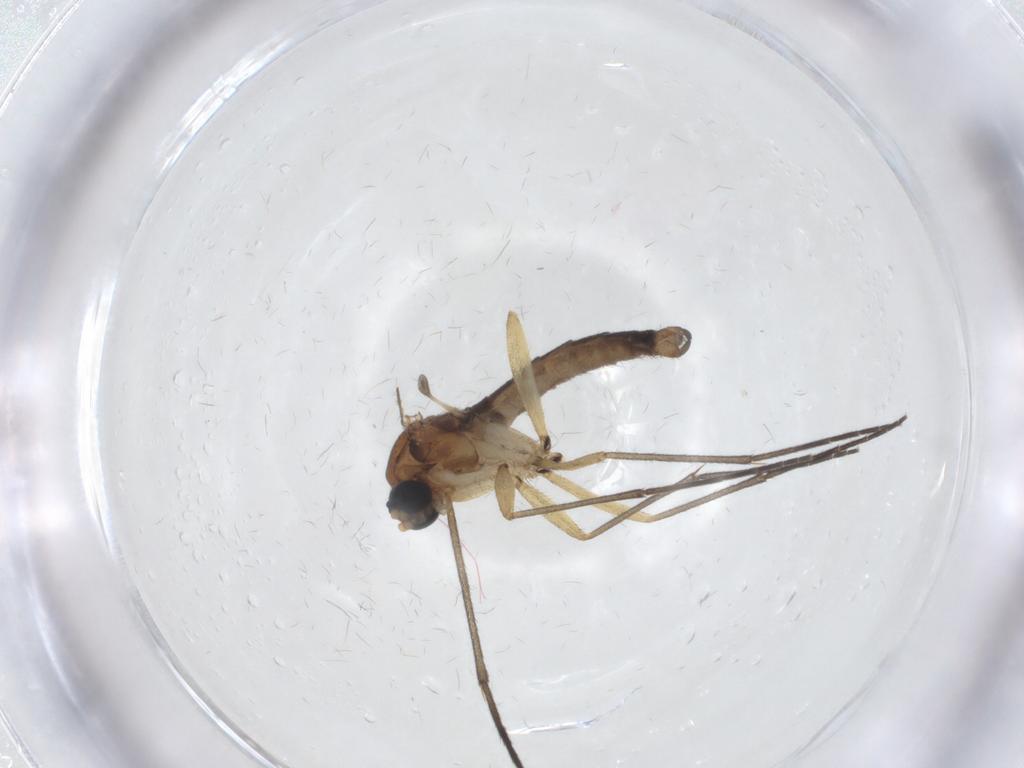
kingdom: Animalia
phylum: Arthropoda
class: Insecta
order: Diptera
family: Sciaridae
